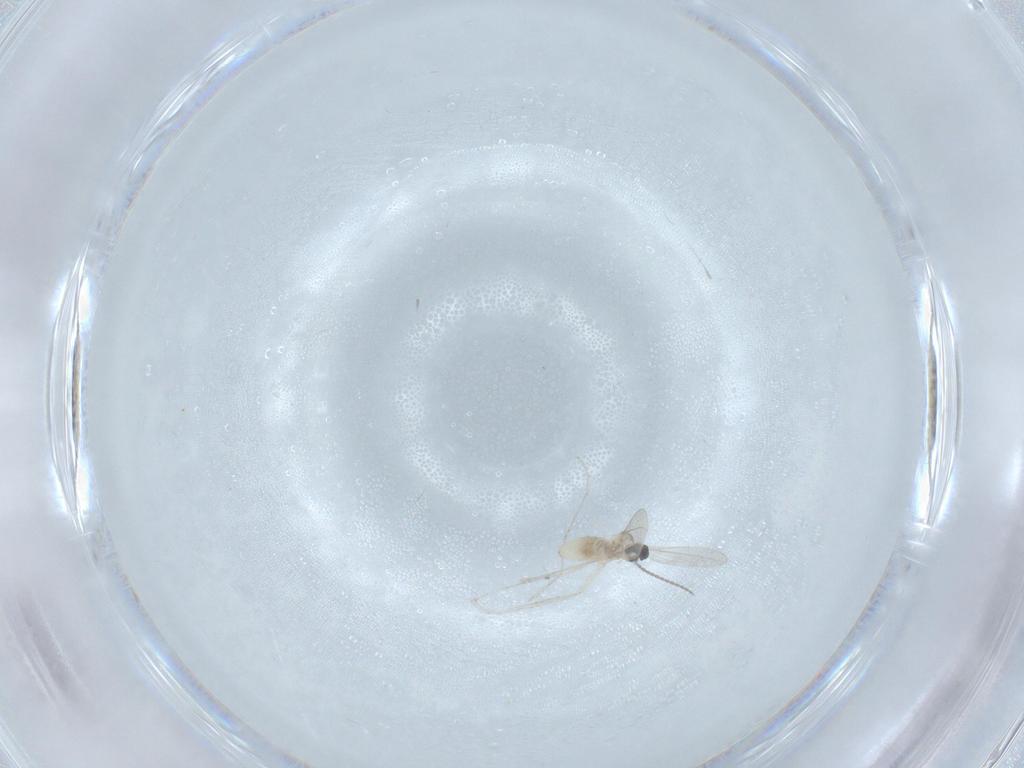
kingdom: Animalia
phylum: Arthropoda
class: Insecta
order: Diptera
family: Cecidomyiidae
